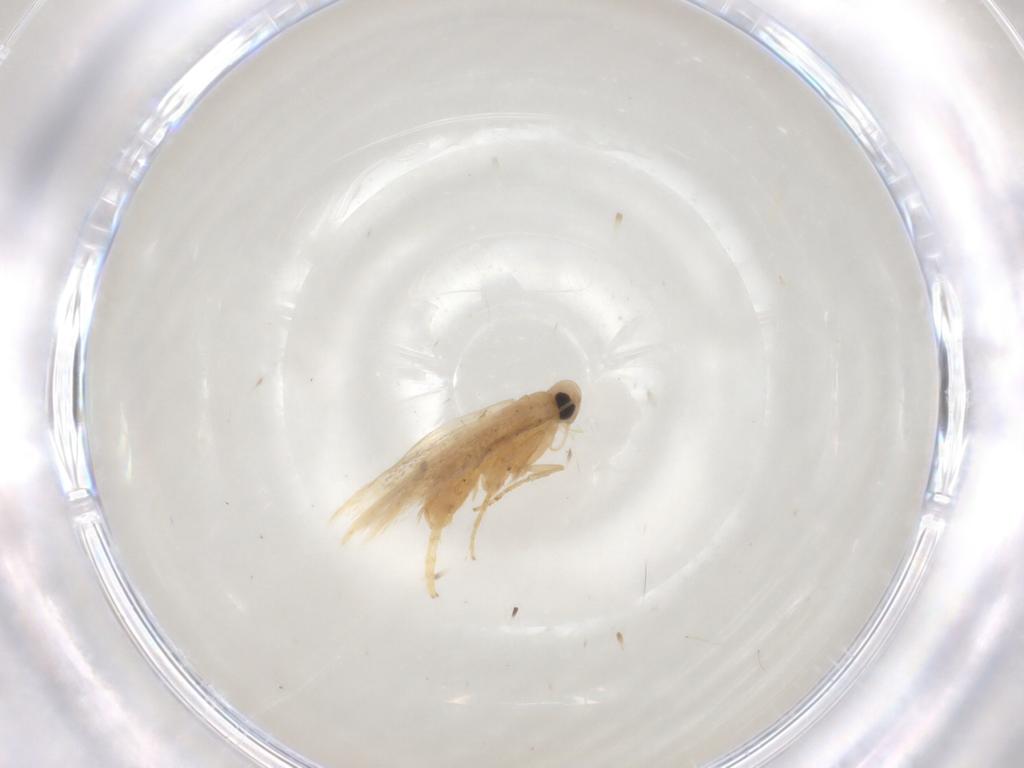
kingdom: Animalia
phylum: Arthropoda
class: Insecta
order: Lepidoptera
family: Tischeriidae
